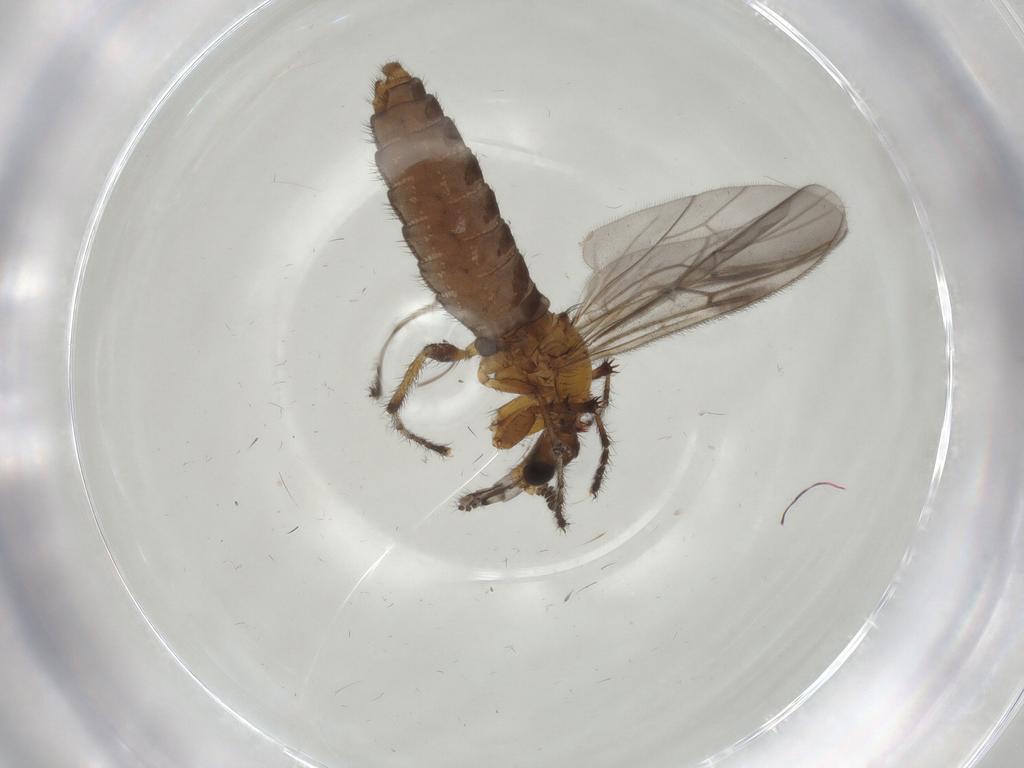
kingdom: Animalia
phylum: Arthropoda
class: Insecta
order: Diptera
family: Bibionidae
